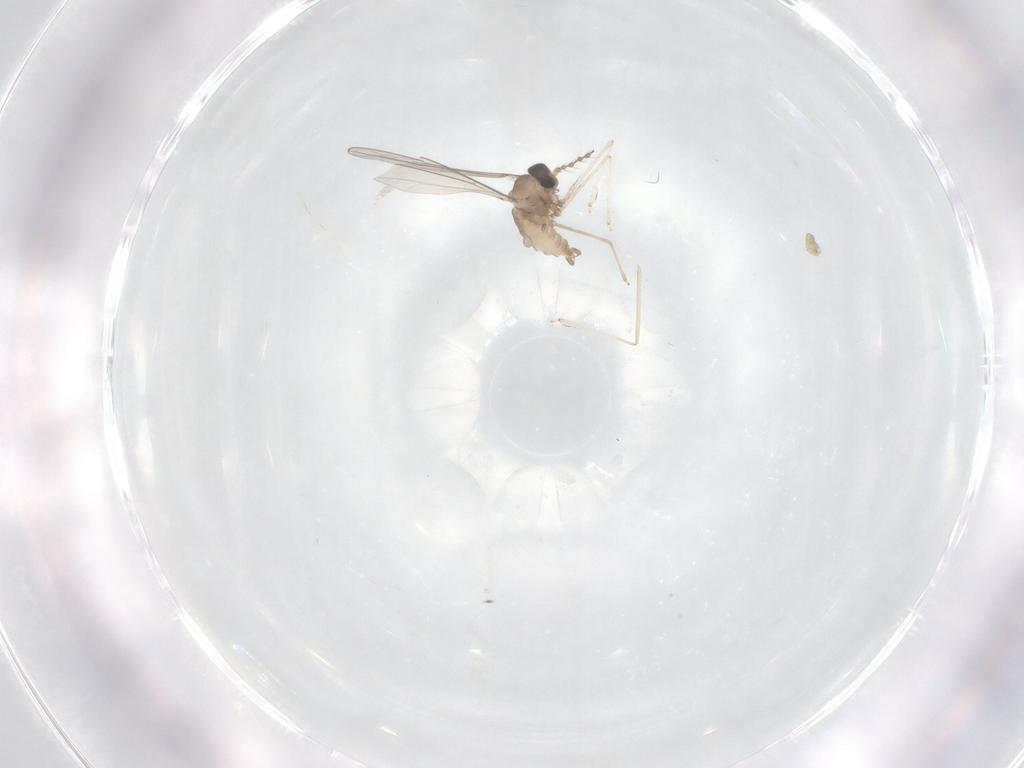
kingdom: Animalia
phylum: Arthropoda
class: Insecta
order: Diptera
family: Cecidomyiidae
